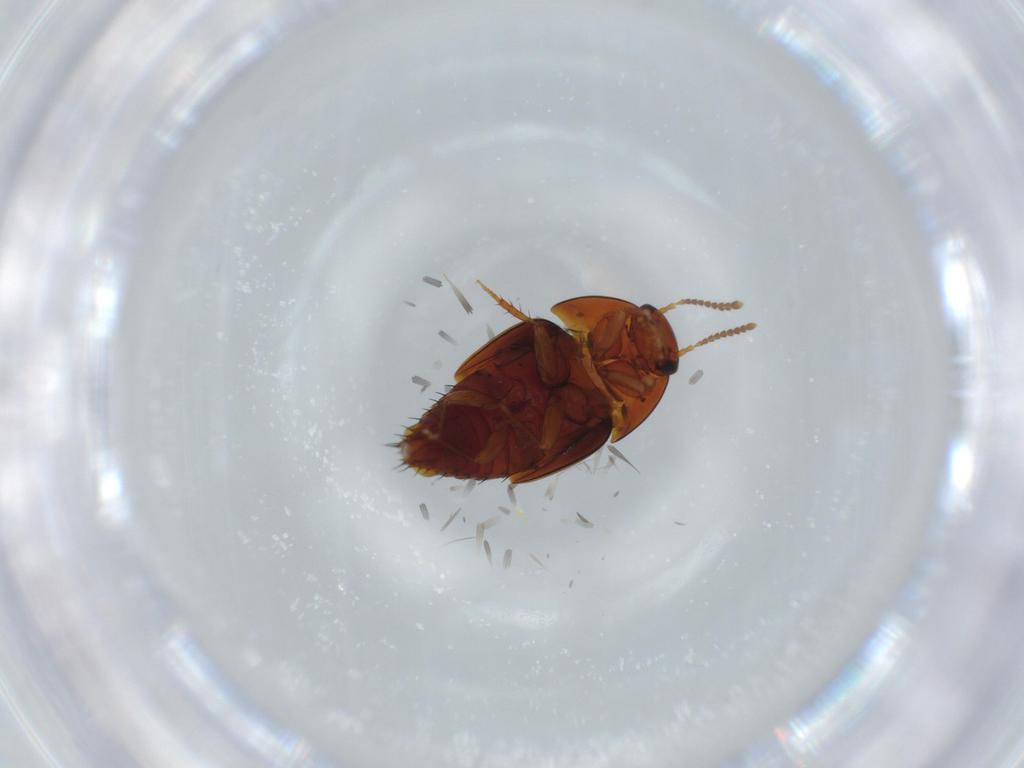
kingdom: Animalia
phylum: Arthropoda
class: Insecta
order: Coleoptera
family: Staphylinidae
